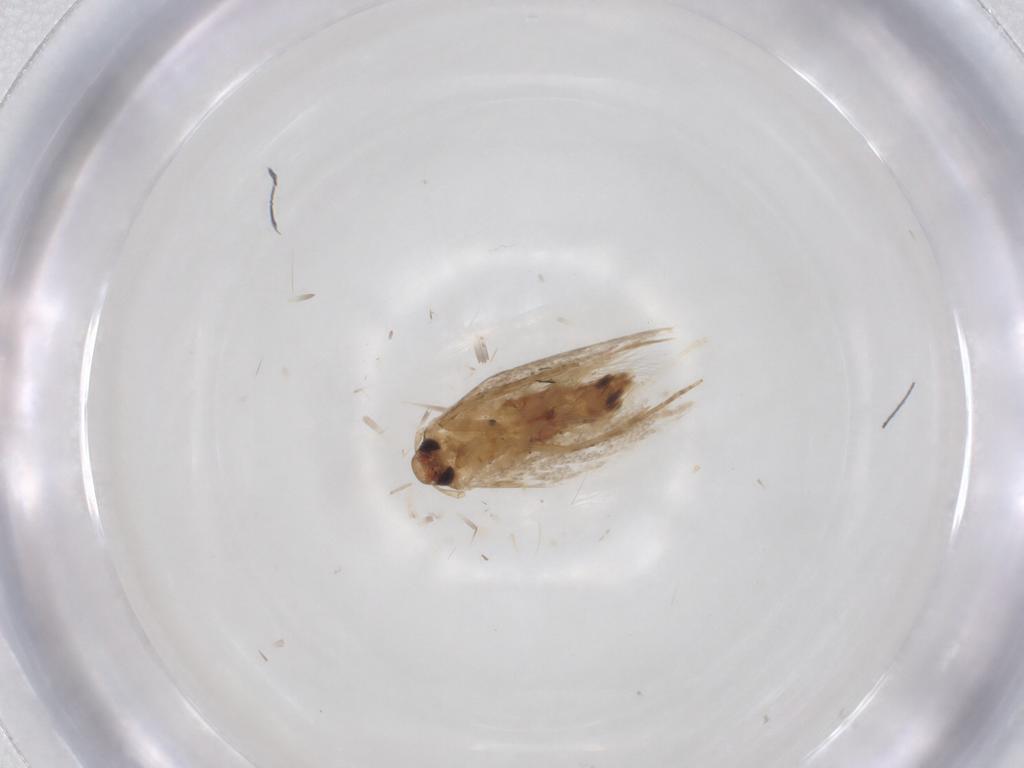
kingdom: Animalia
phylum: Arthropoda
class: Insecta
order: Lepidoptera
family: Cosmopterigidae
